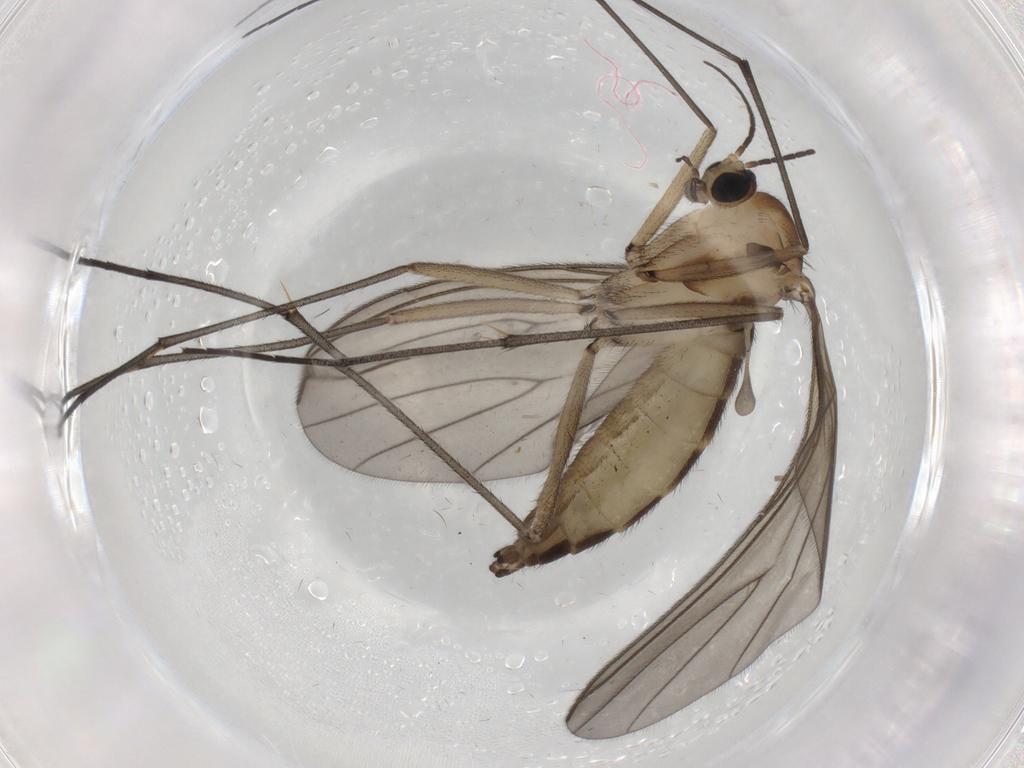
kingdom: Animalia
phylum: Arthropoda
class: Insecta
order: Diptera
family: Sciaridae
